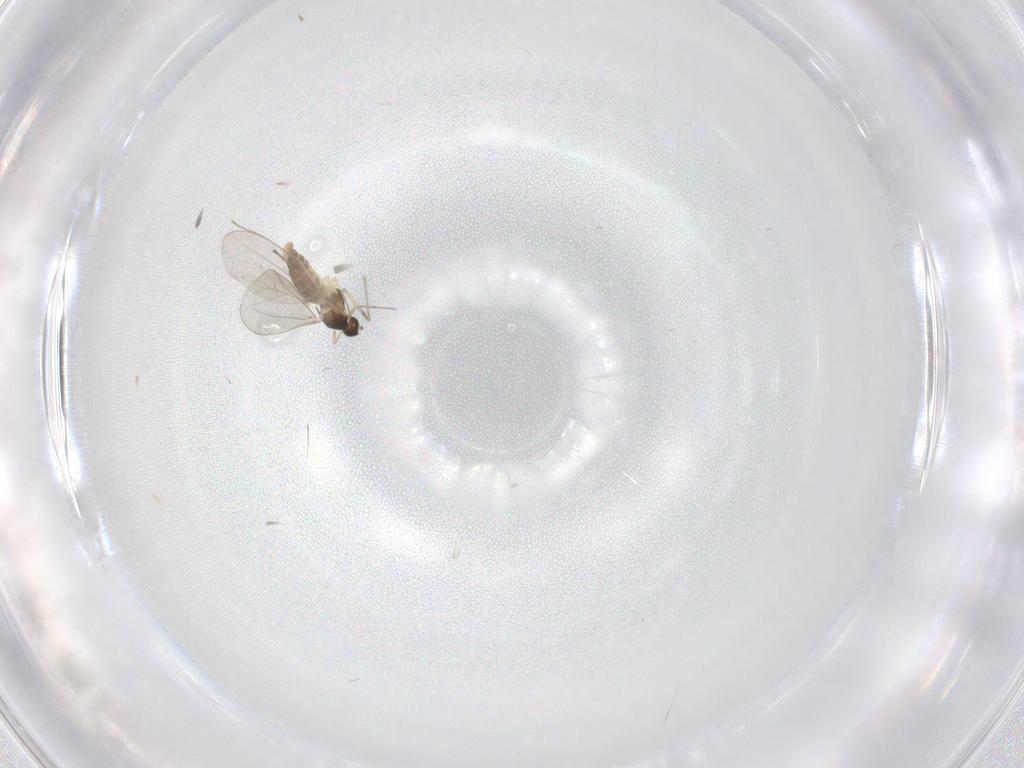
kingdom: Animalia
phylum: Arthropoda
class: Insecta
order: Diptera
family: Cecidomyiidae
